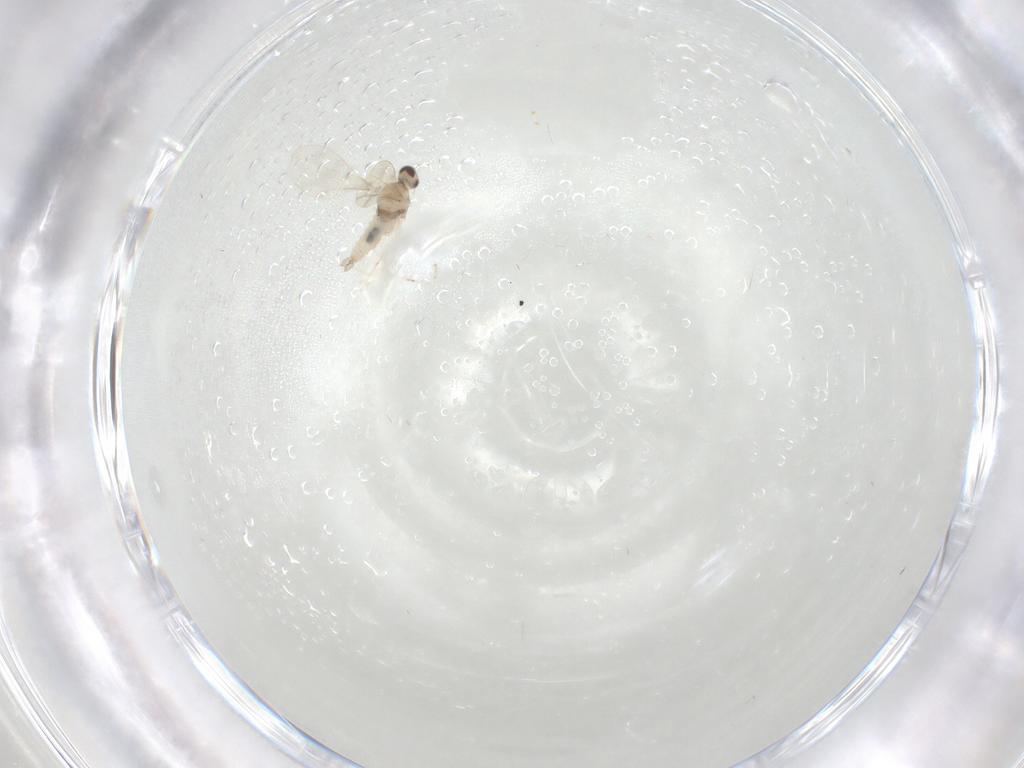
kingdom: Animalia
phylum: Arthropoda
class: Insecta
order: Diptera
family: Cecidomyiidae
